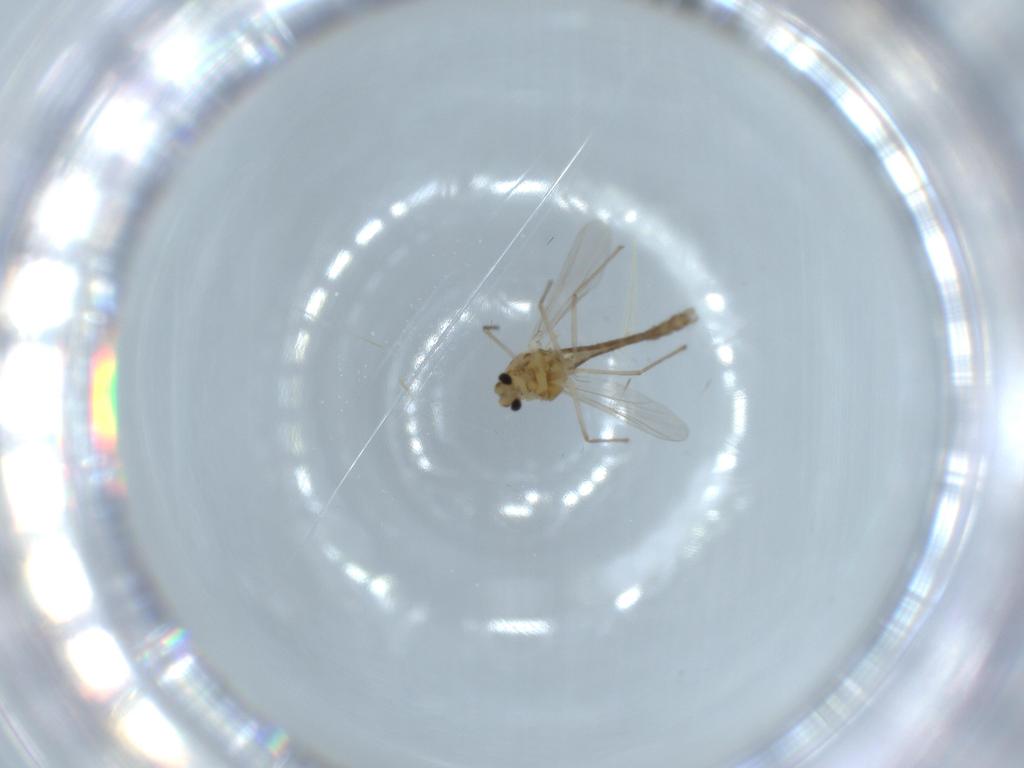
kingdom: Animalia
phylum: Arthropoda
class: Insecta
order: Diptera
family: Chironomidae
